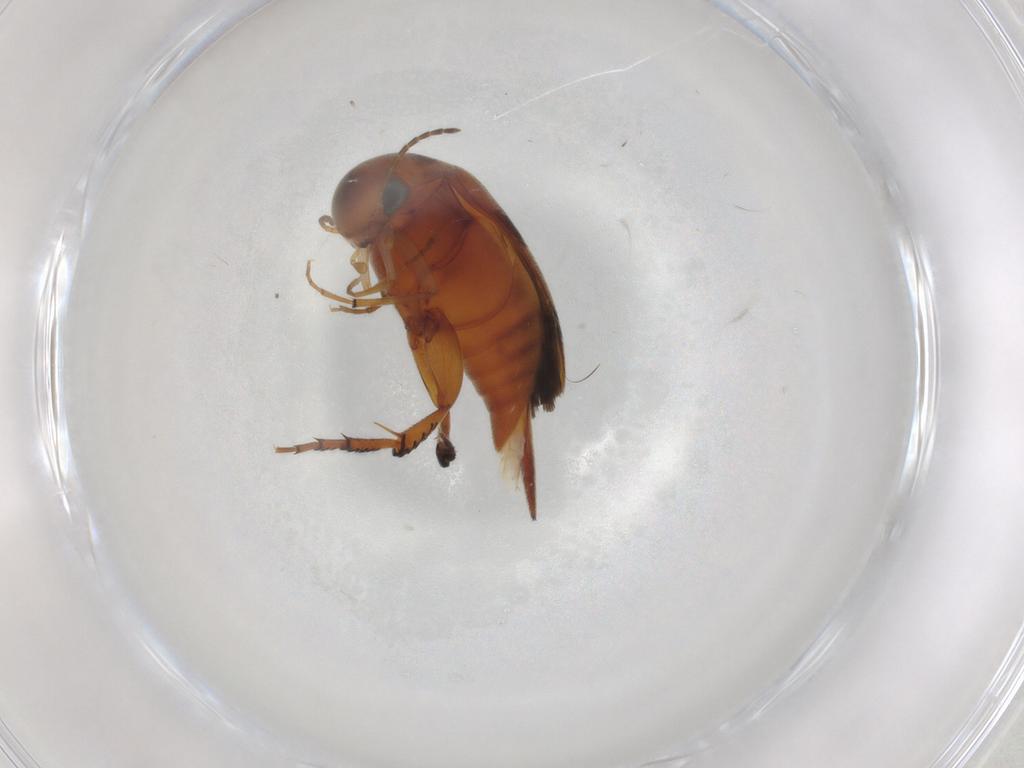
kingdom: Animalia
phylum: Arthropoda
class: Insecta
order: Coleoptera
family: Mordellidae
